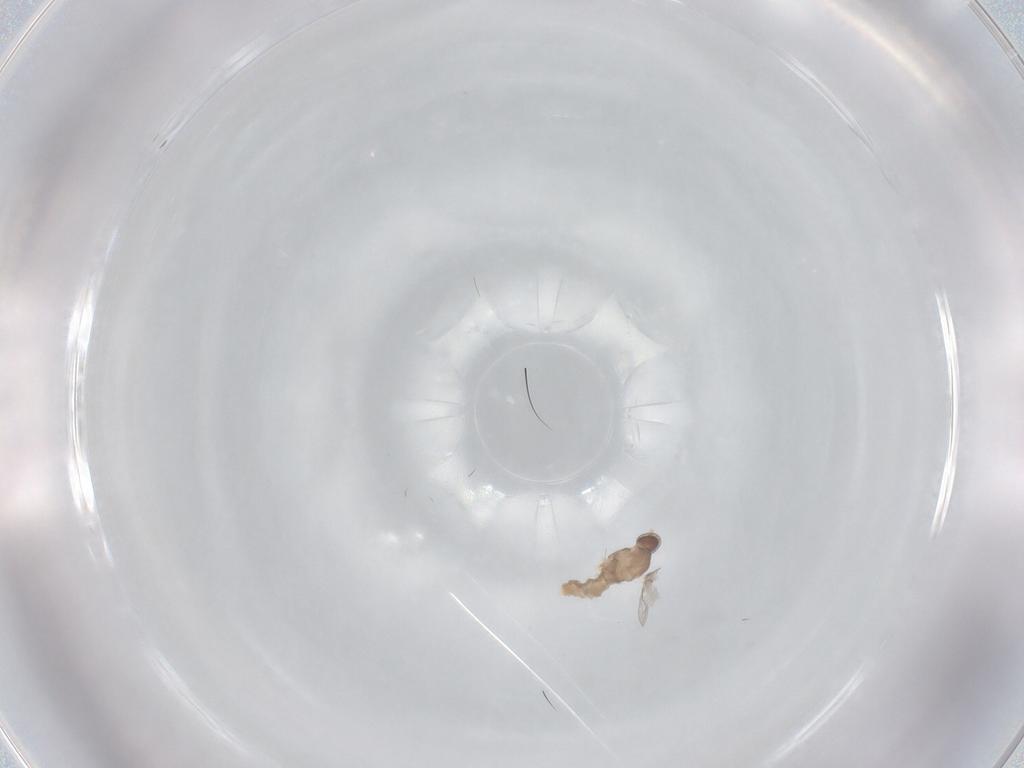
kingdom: Animalia
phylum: Arthropoda
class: Insecta
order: Diptera
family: Cecidomyiidae
